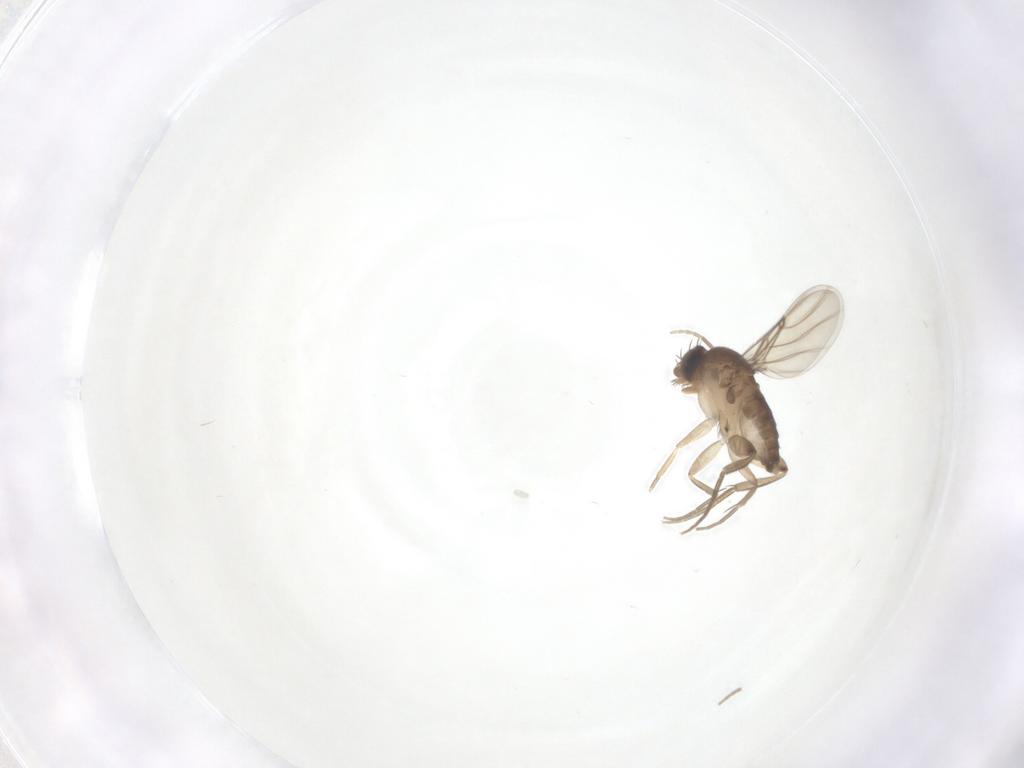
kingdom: Animalia
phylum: Arthropoda
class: Insecta
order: Diptera
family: Phoridae
